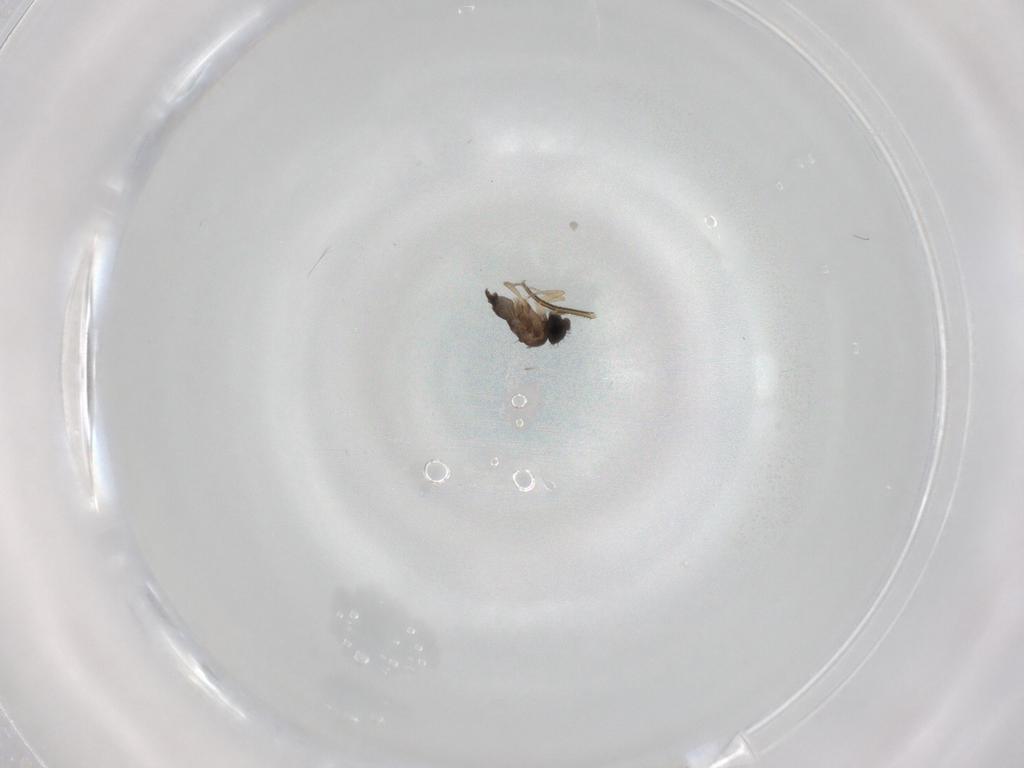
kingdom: Animalia
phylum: Arthropoda
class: Insecta
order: Diptera
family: Phoridae
